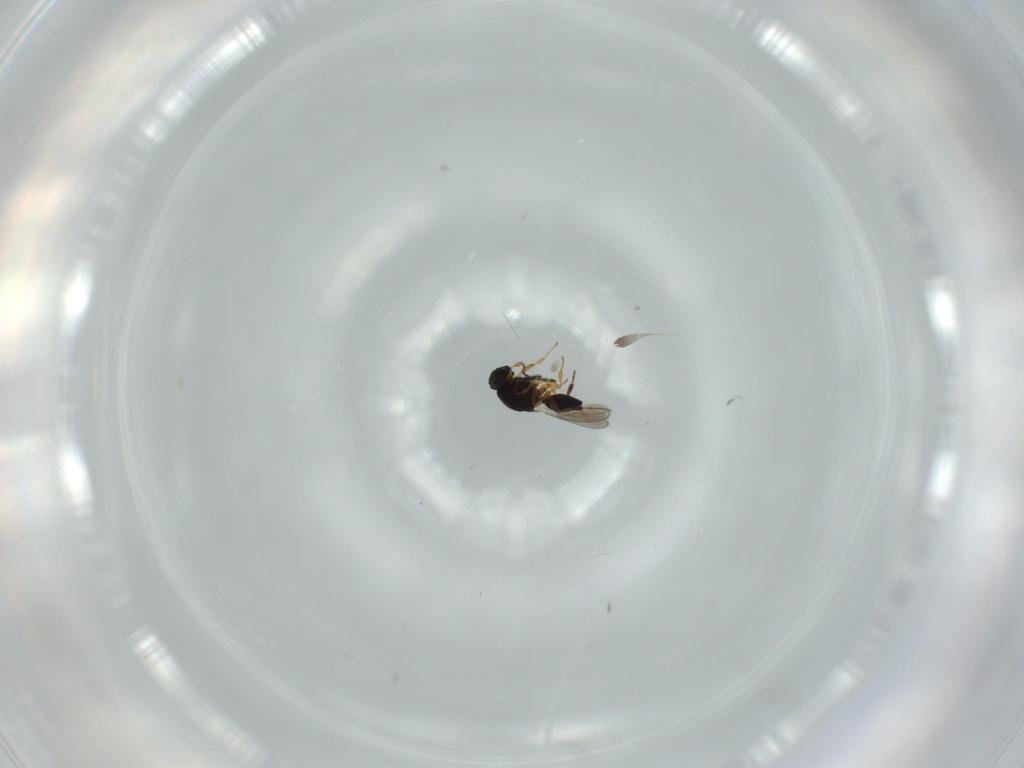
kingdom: Animalia
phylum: Arthropoda
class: Insecta
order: Hymenoptera
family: Platygastridae
